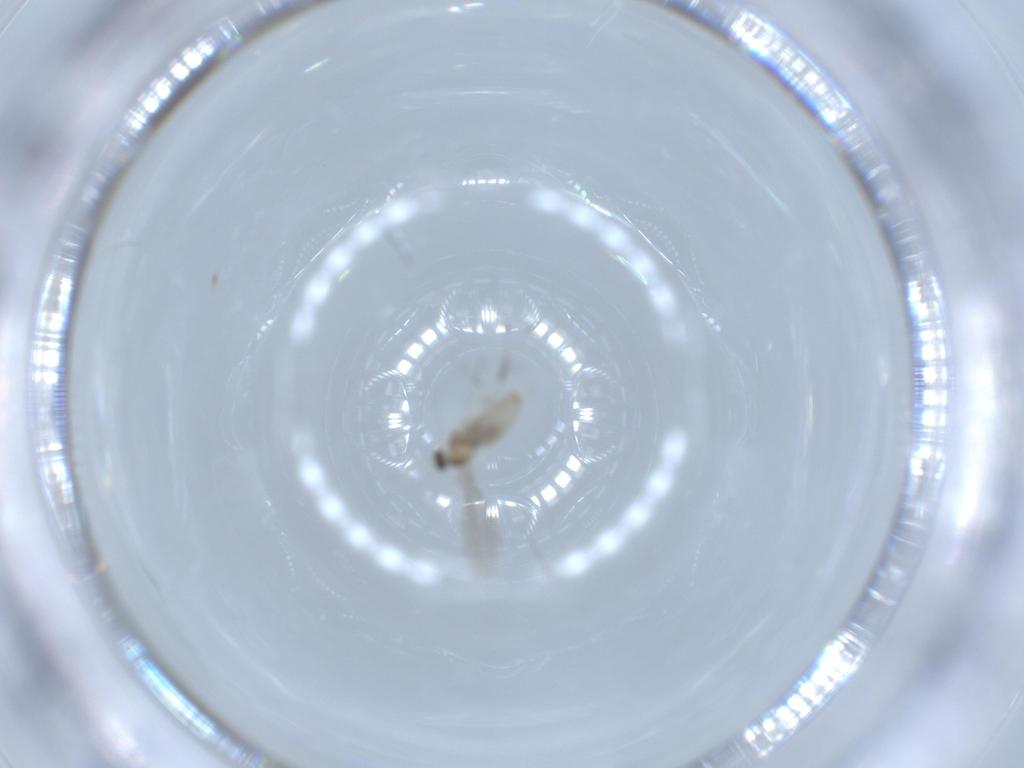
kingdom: Animalia
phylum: Arthropoda
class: Insecta
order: Diptera
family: Cecidomyiidae
